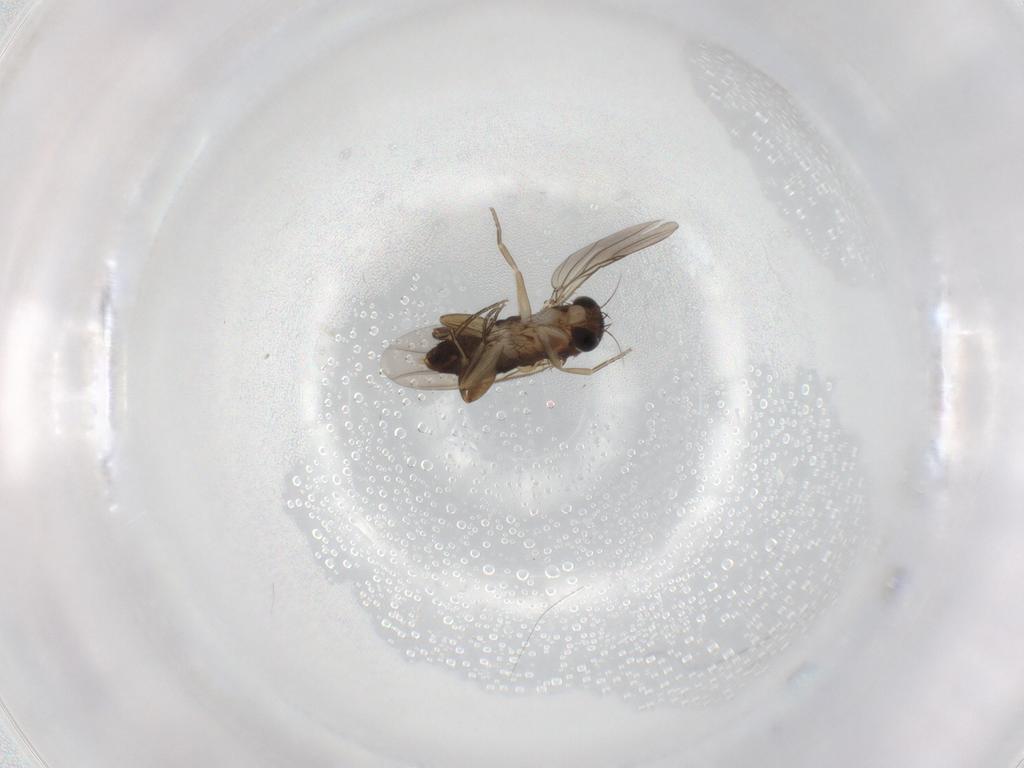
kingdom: Animalia
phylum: Arthropoda
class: Insecta
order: Diptera
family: Phoridae
